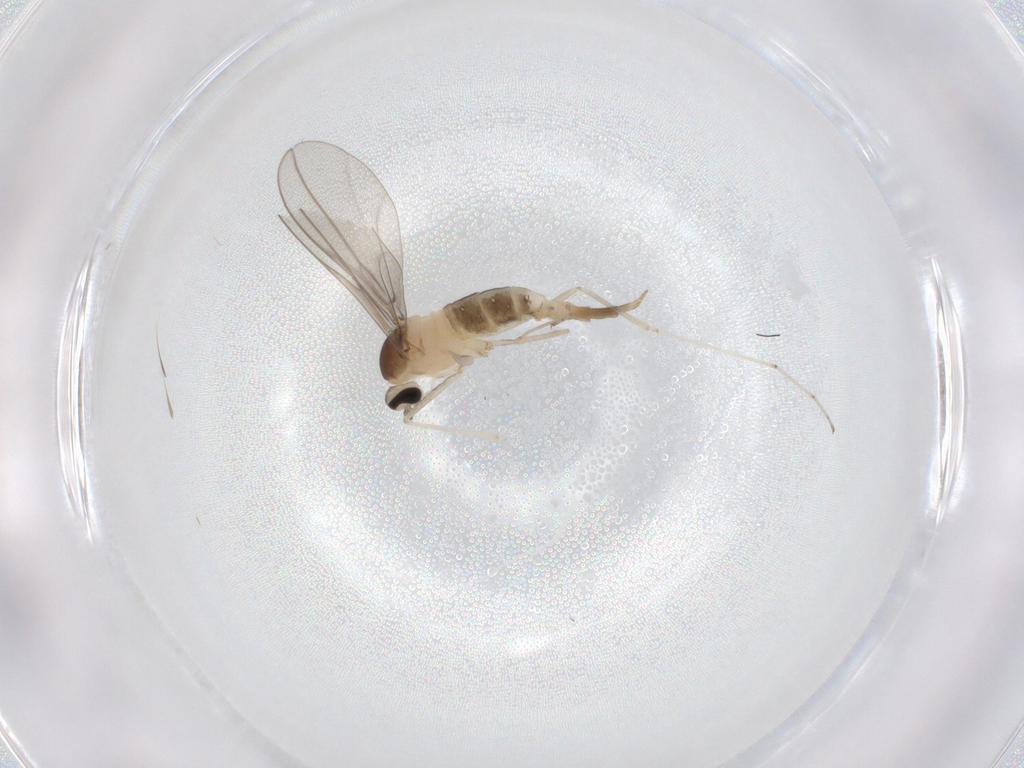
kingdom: Animalia
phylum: Arthropoda
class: Insecta
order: Diptera
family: Cecidomyiidae
